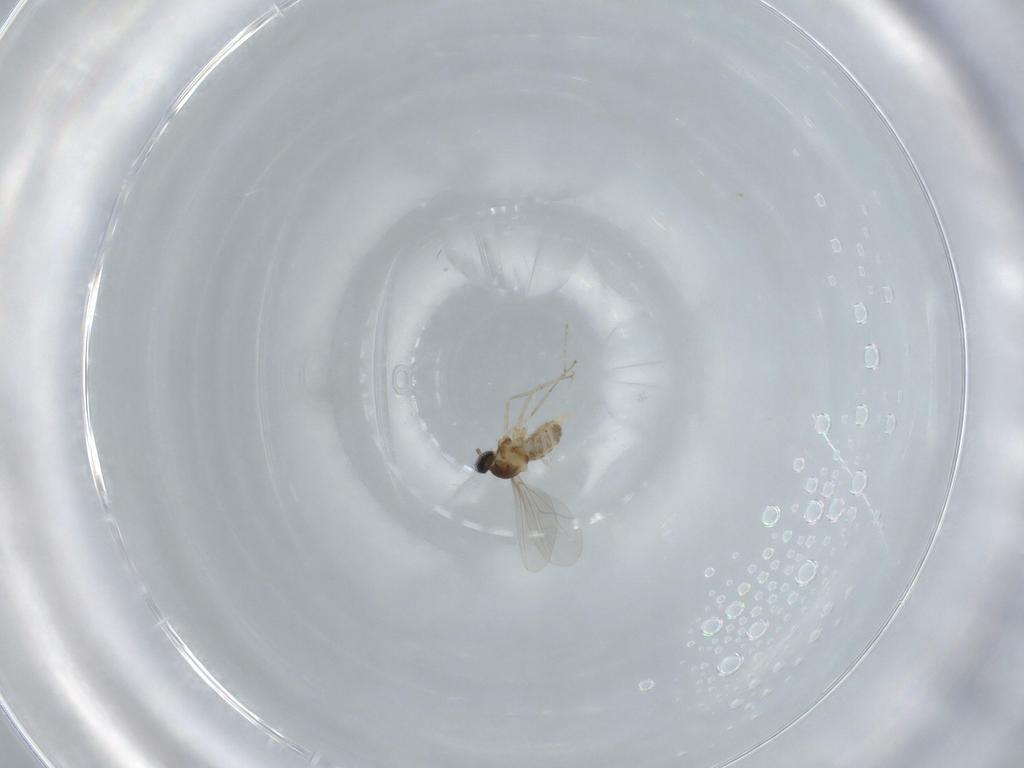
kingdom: Animalia
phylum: Arthropoda
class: Insecta
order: Diptera
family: Cecidomyiidae
